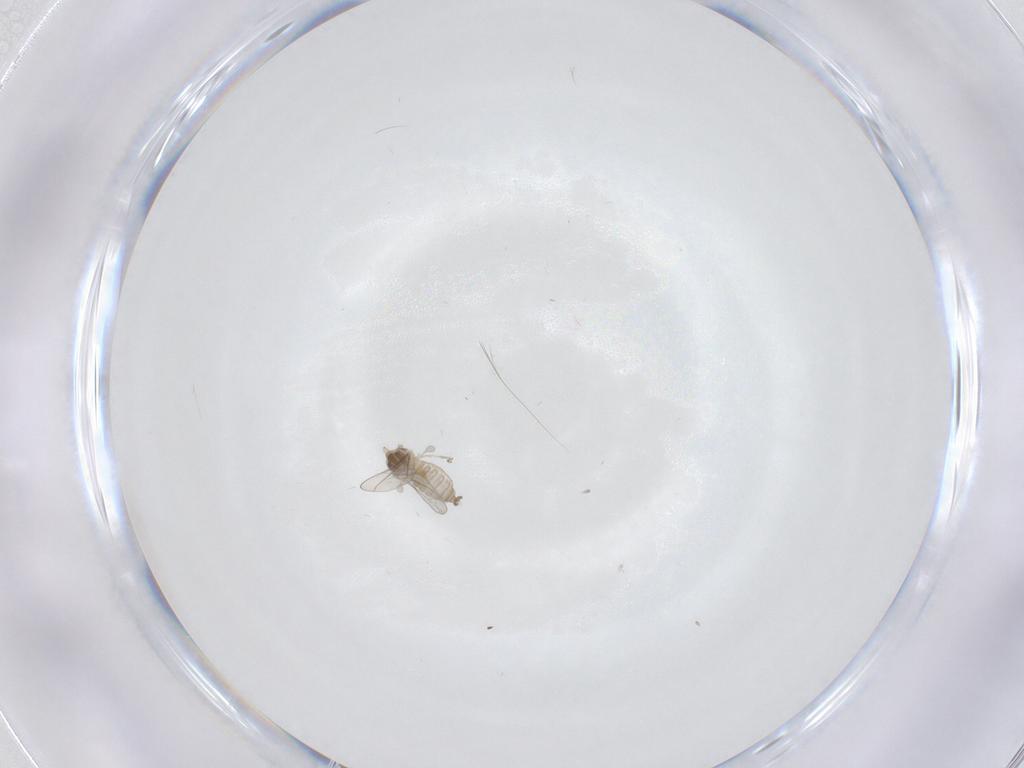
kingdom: Animalia
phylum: Arthropoda
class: Insecta
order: Diptera
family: Cecidomyiidae
